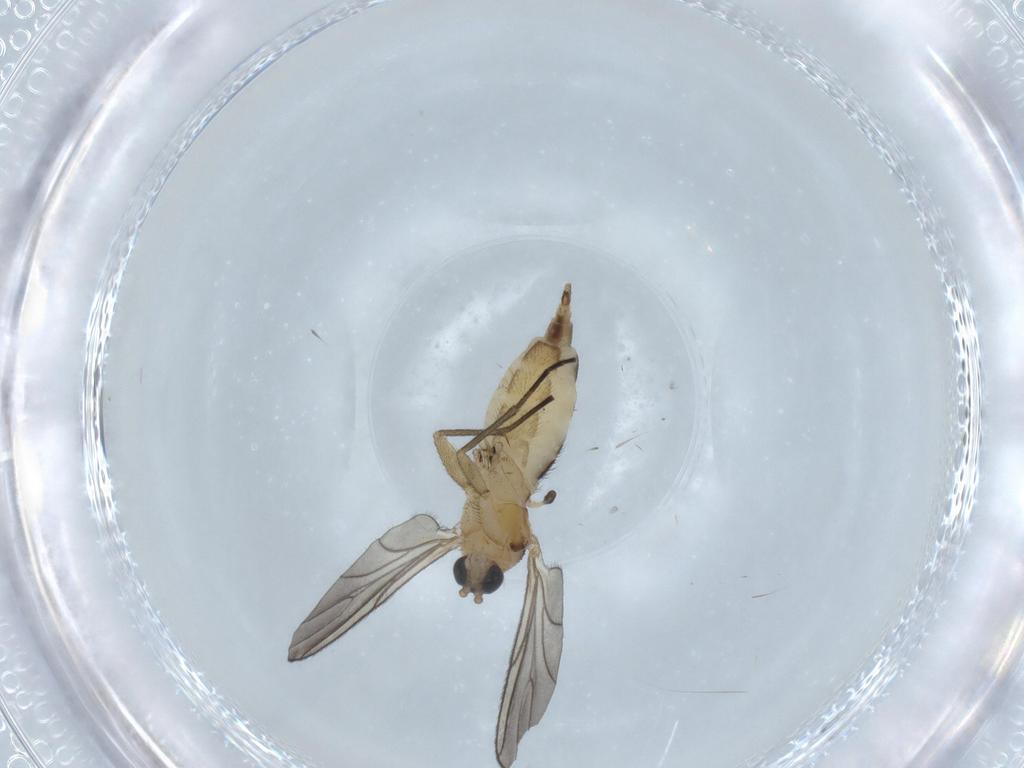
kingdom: Animalia
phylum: Arthropoda
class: Insecta
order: Diptera
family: Sciaridae
